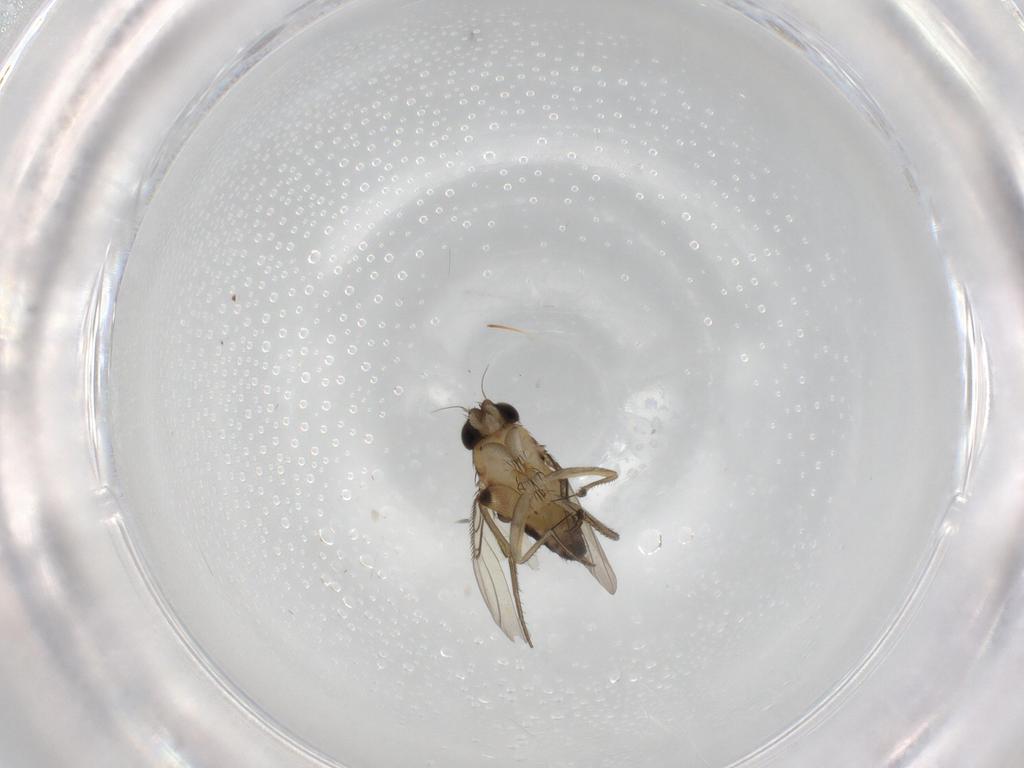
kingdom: Animalia
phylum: Arthropoda
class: Insecta
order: Diptera
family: Phoridae
